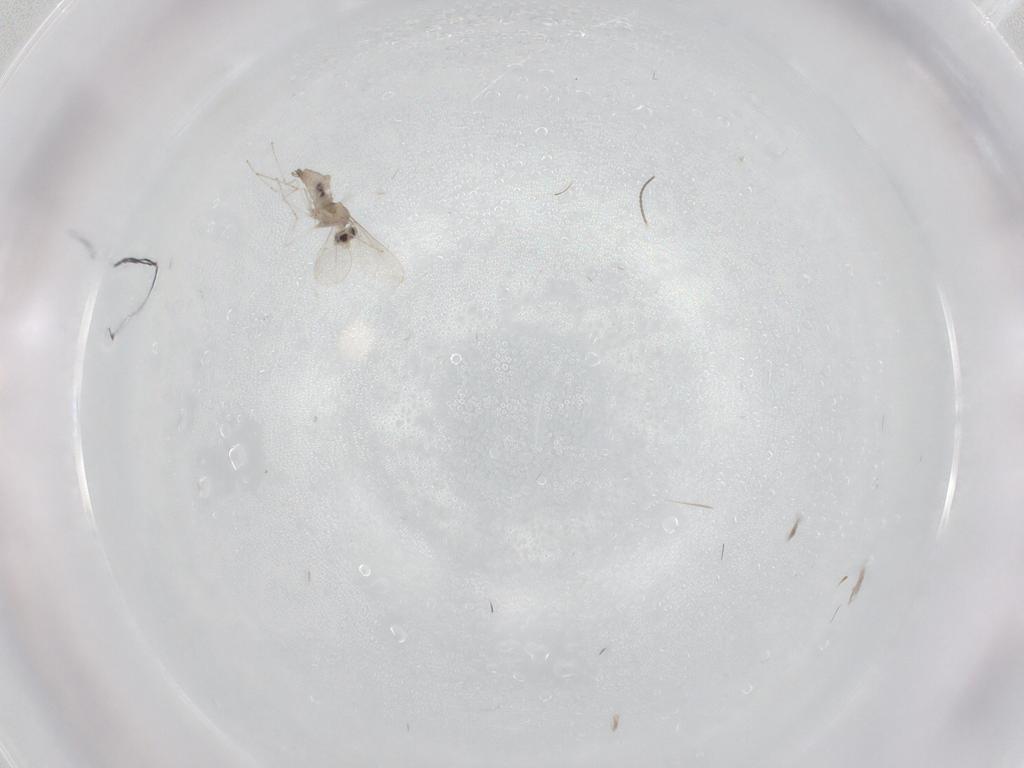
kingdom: Animalia
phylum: Arthropoda
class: Insecta
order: Diptera
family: Cecidomyiidae
